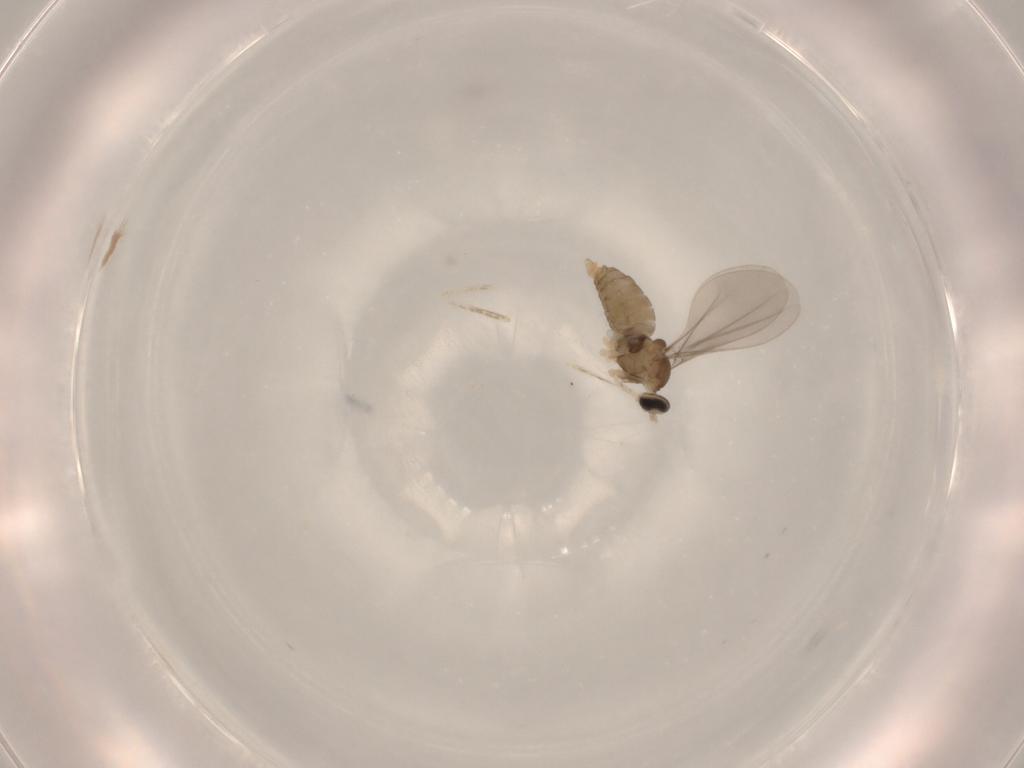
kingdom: Animalia
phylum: Arthropoda
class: Insecta
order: Diptera
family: Cecidomyiidae
